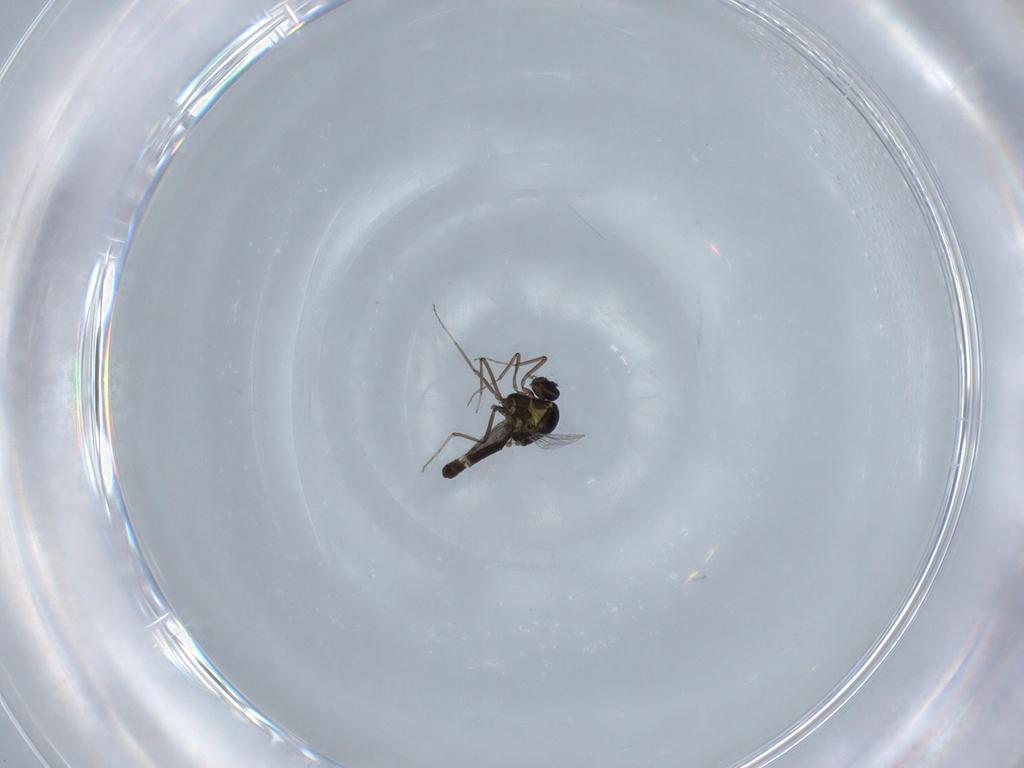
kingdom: Animalia
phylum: Arthropoda
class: Insecta
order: Diptera
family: Ceratopogonidae
